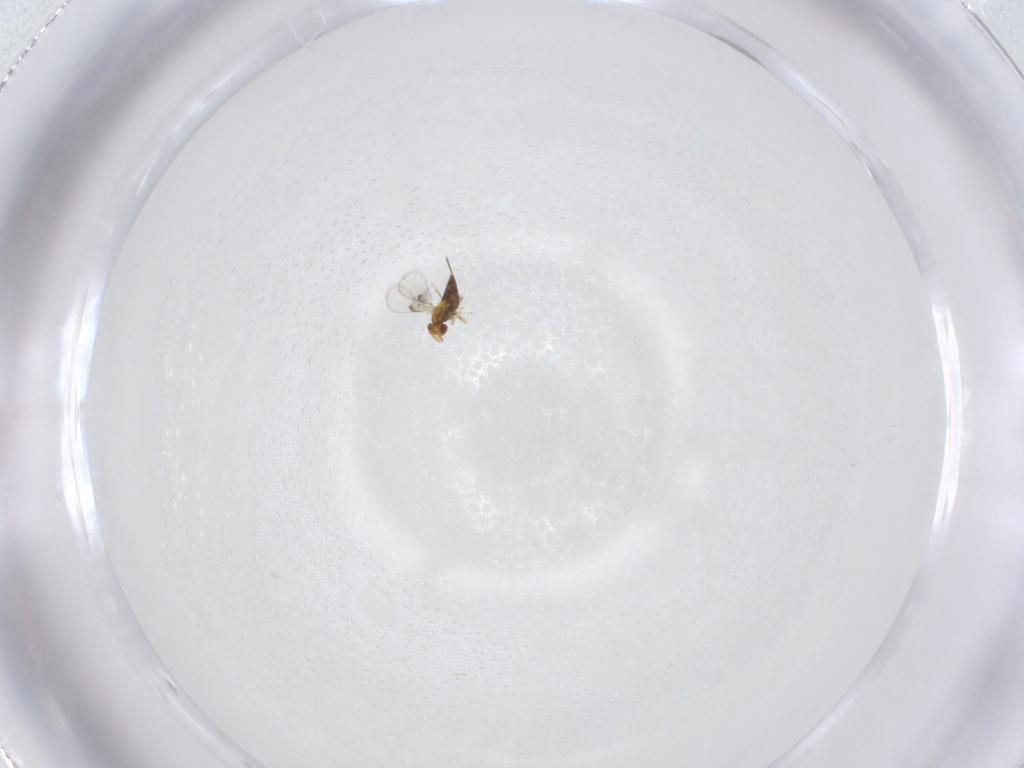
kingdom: Animalia
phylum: Arthropoda
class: Insecta
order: Hymenoptera
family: Trichogrammatidae
